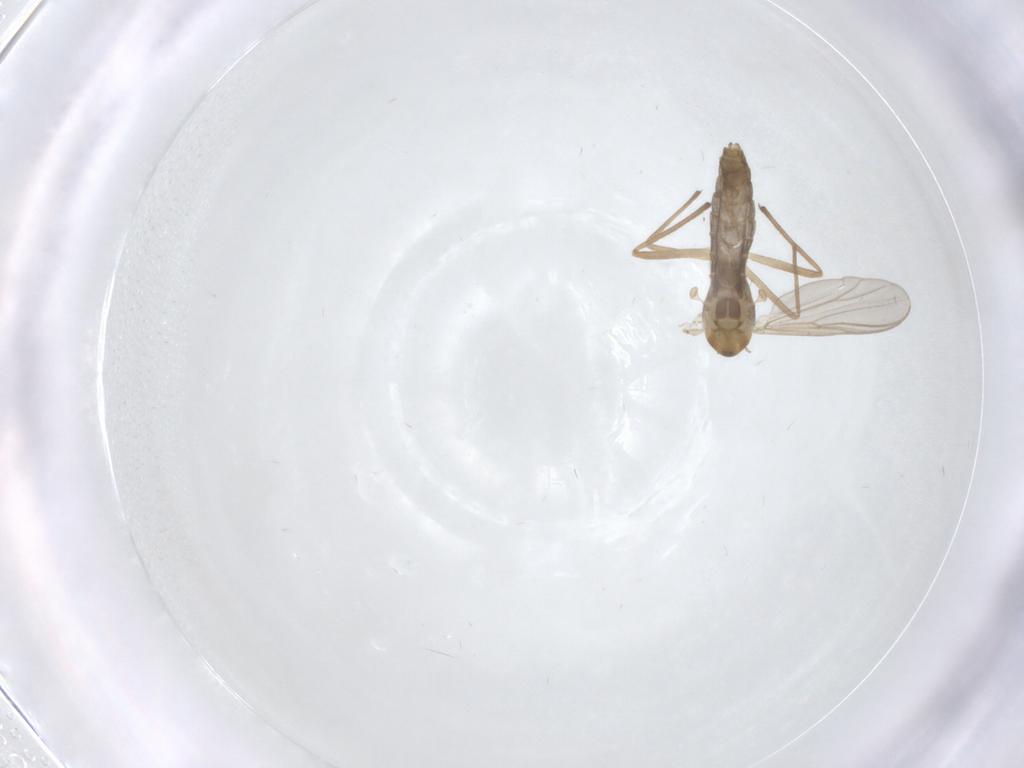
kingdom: Animalia
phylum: Arthropoda
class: Insecta
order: Diptera
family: Chironomidae
